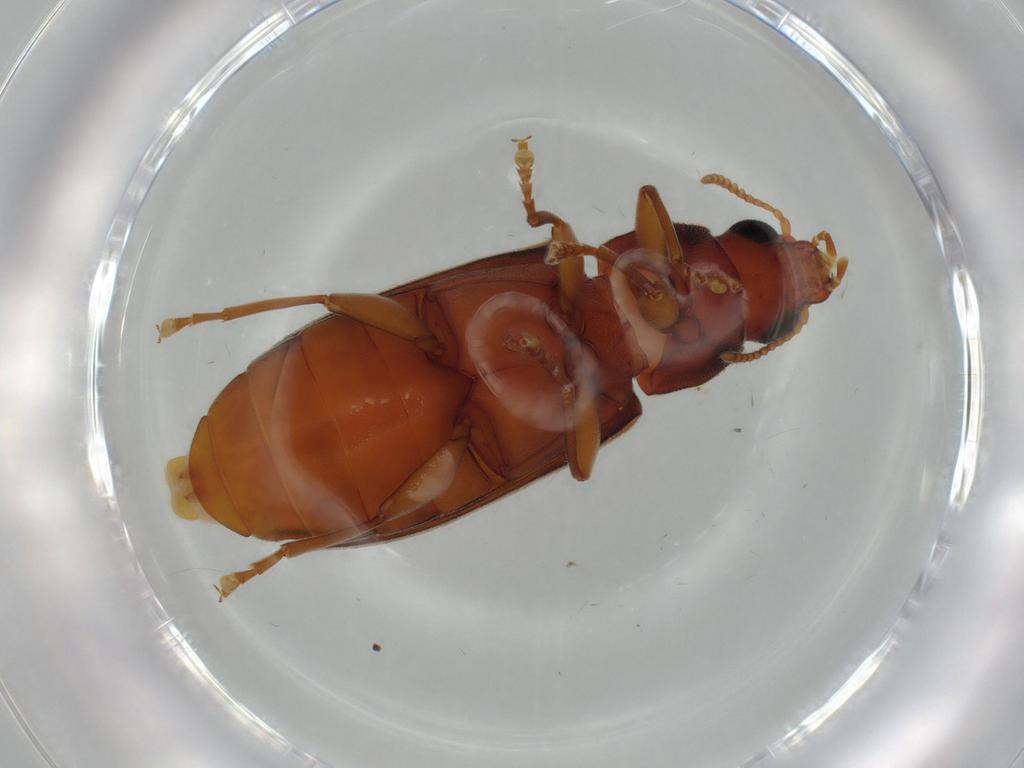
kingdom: Animalia
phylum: Arthropoda
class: Insecta
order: Coleoptera
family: Mycteridae
